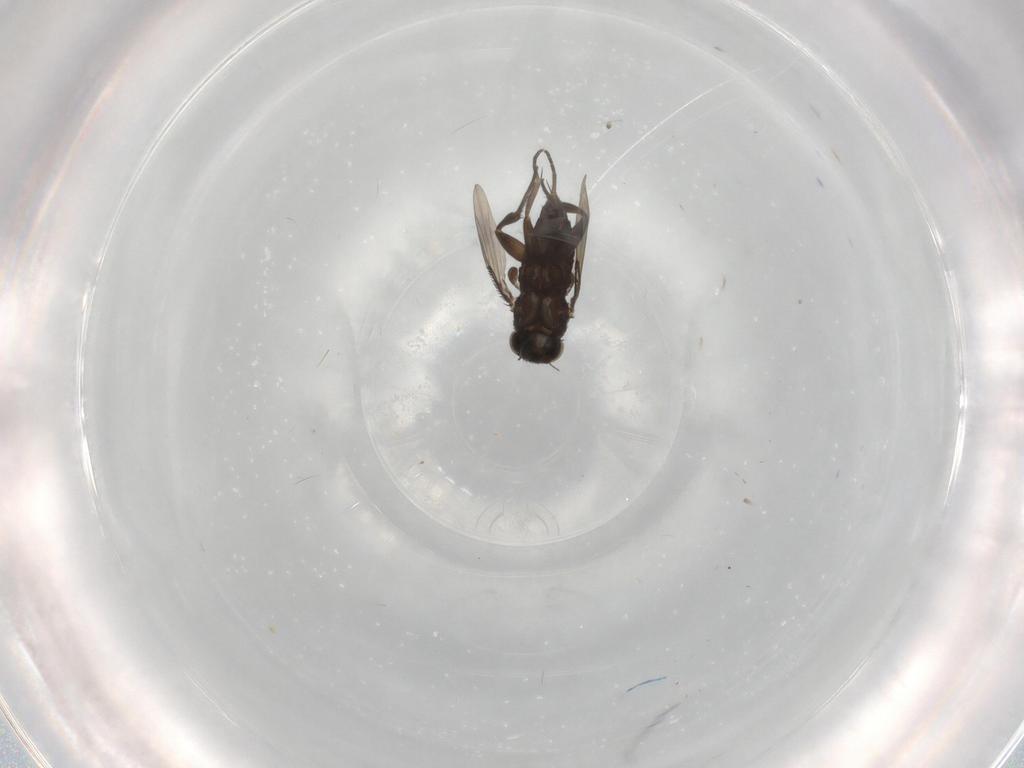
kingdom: Animalia
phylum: Arthropoda
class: Insecta
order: Diptera
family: Phoridae
